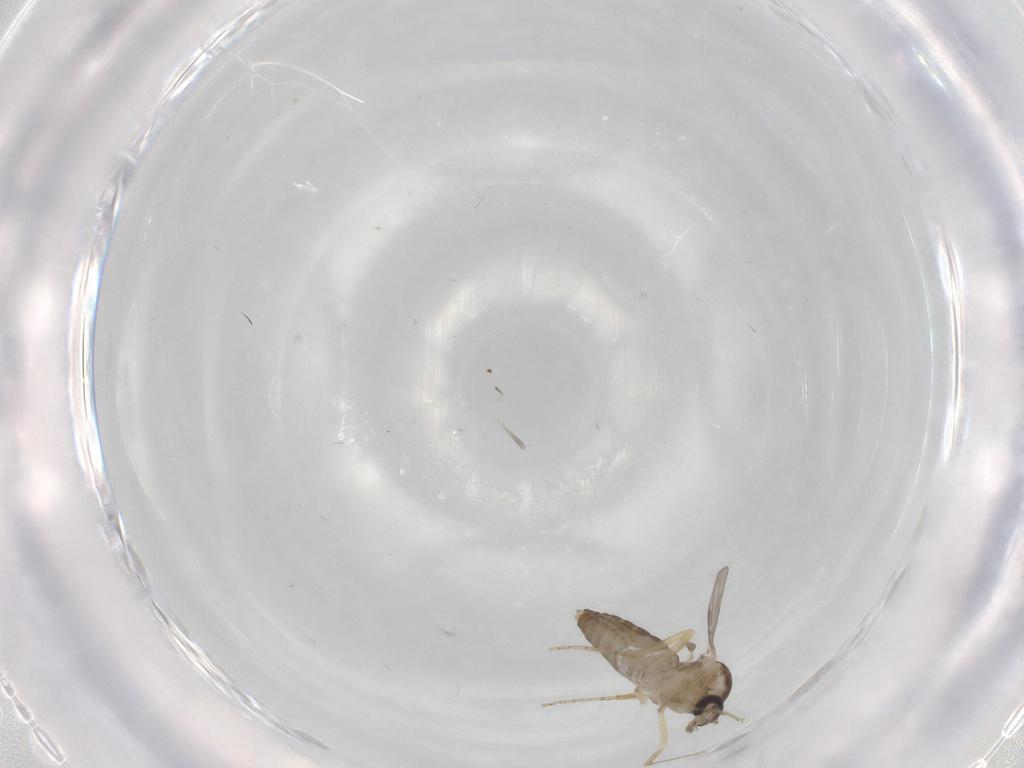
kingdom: Animalia
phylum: Arthropoda
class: Insecta
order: Diptera
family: Ceratopogonidae
